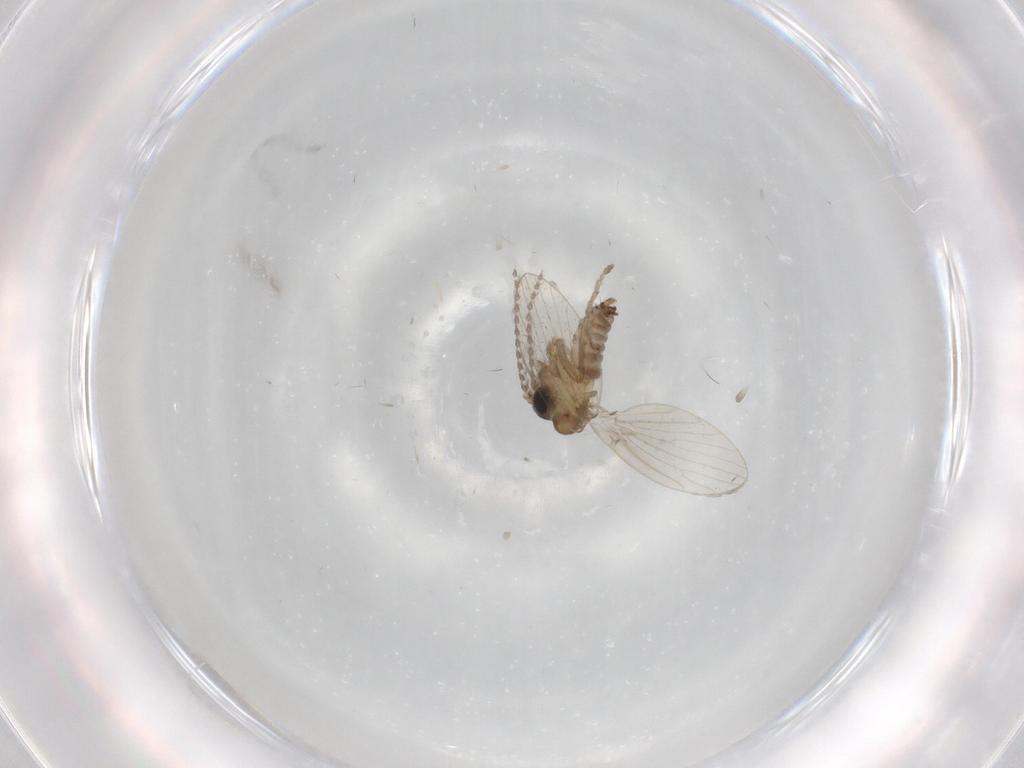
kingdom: Animalia
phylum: Arthropoda
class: Insecta
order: Diptera
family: Psychodidae
